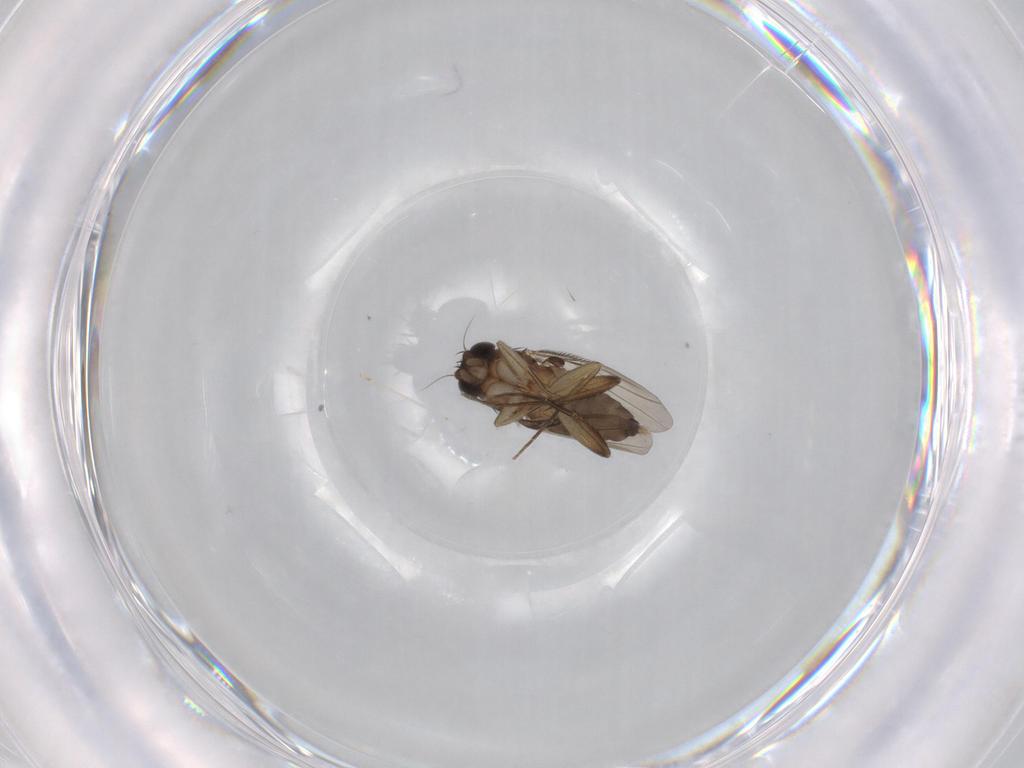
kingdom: Animalia
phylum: Arthropoda
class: Insecta
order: Diptera
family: Phoridae
